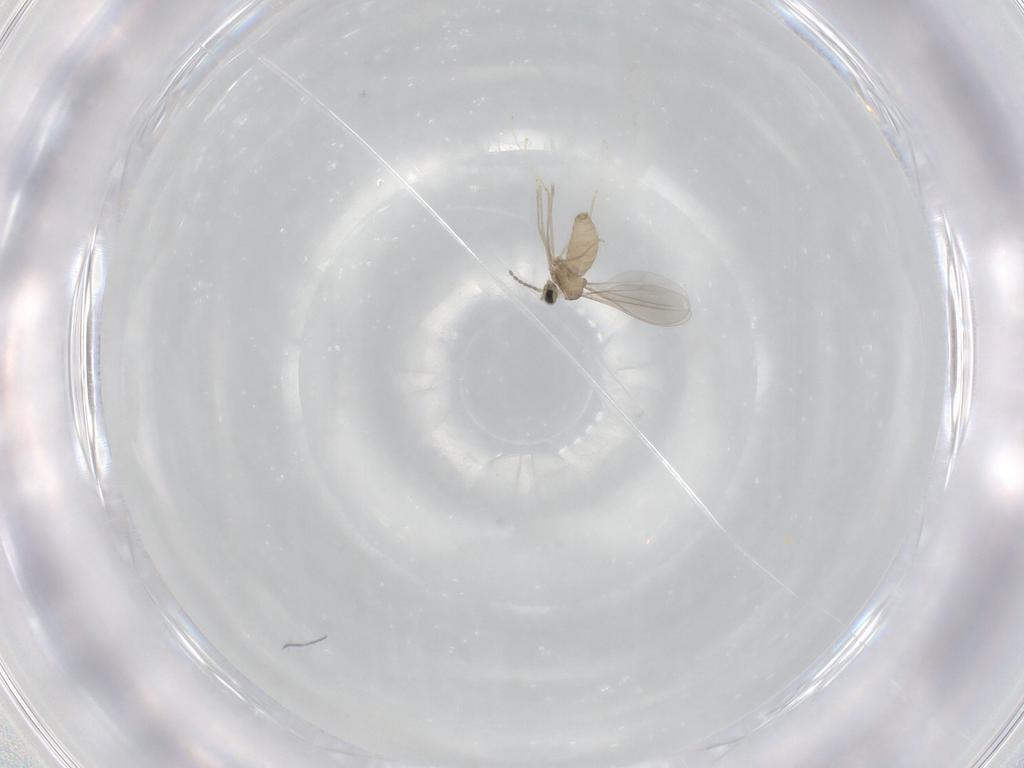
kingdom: Animalia
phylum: Arthropoda
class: Insecta
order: Diptera
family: Cecidomyiidae
